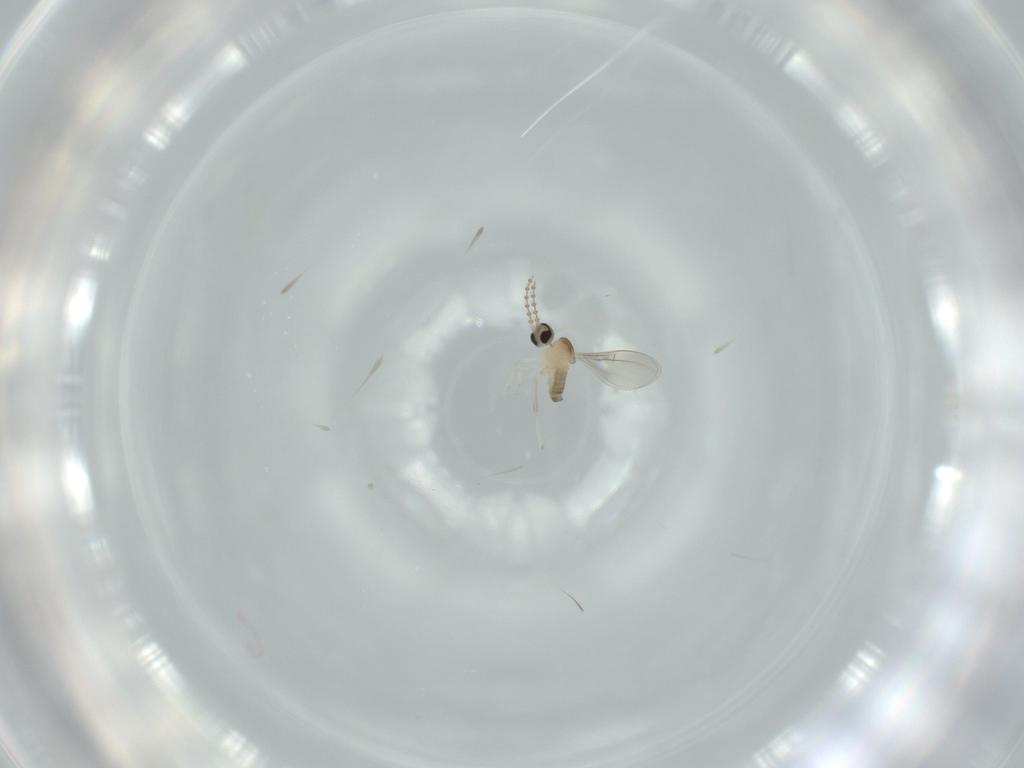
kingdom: Animalia
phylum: Arthropoda
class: Insecta
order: Diptera
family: Cecidomyiidae
